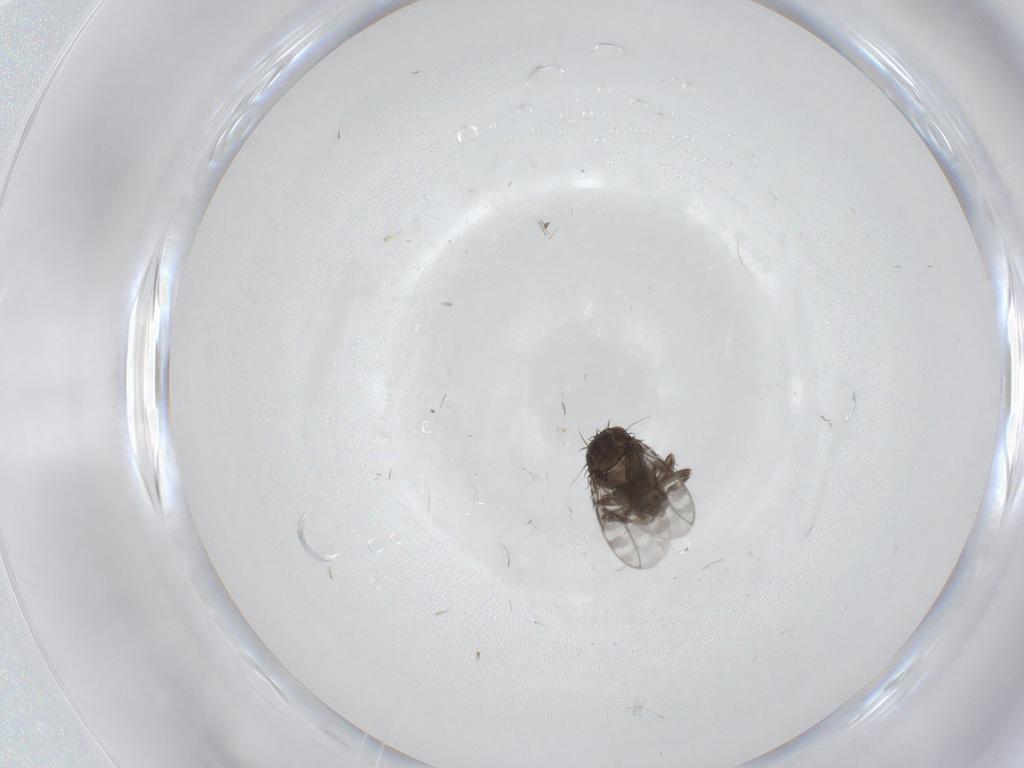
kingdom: Animalia
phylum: Arthropoda
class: Insecta
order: Diptera
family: Sphaeroceridae
